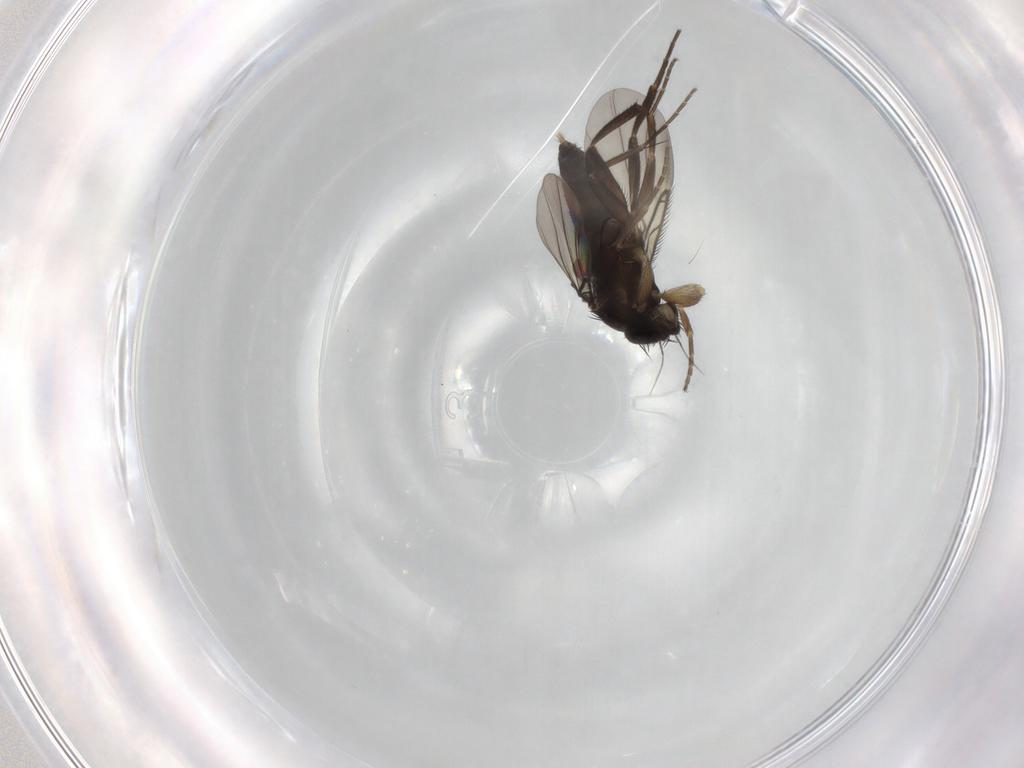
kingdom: Animalia
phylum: Arthropoda
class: Insecta
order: Diptera
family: Phoridae
